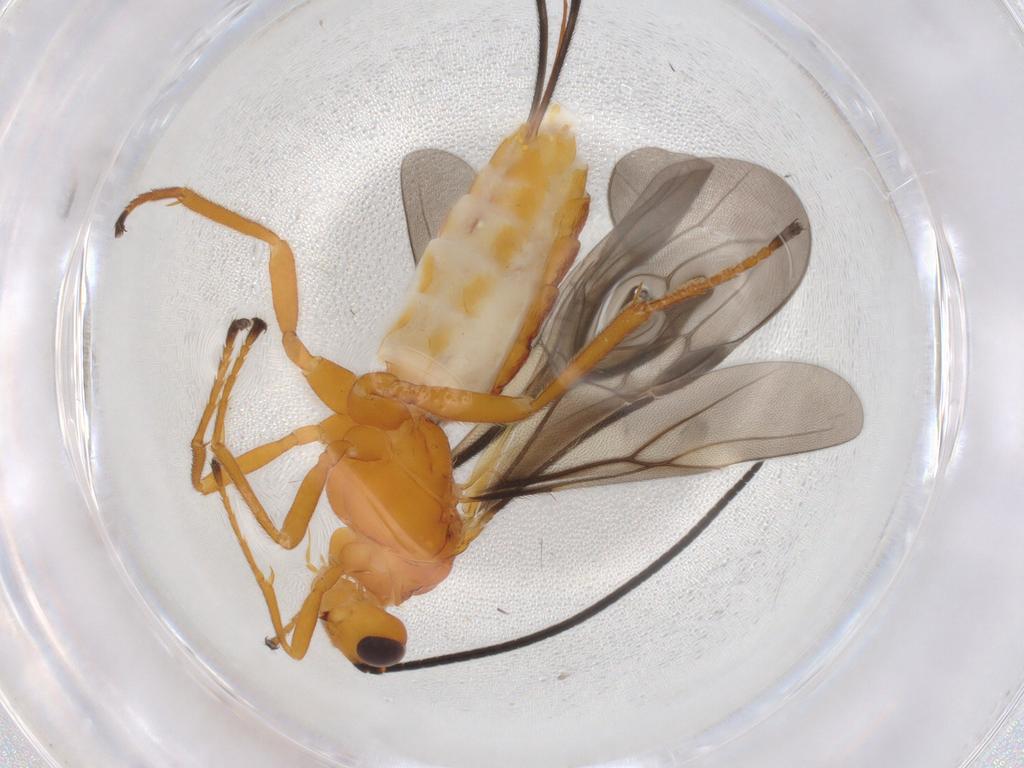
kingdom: Animalia
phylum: Arthropoda
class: Insecta
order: Hymenoptera
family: Braconidae
